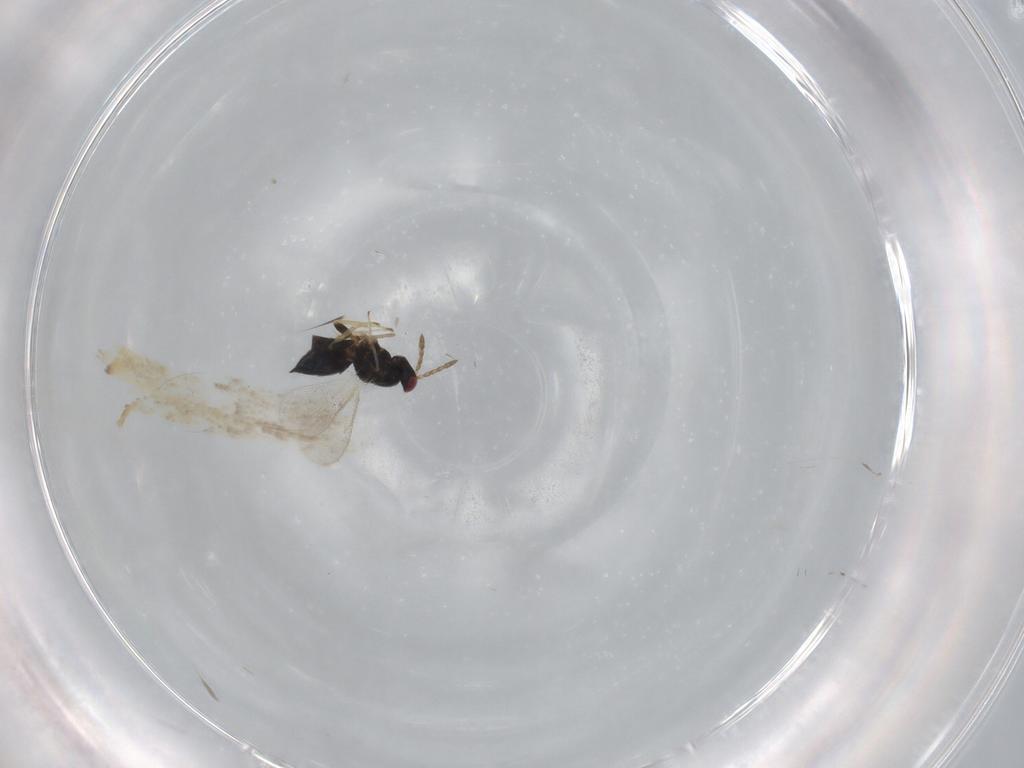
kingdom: Animalia
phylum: Arthropoda
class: Insecta
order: Hymenoptera
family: Eulophidae
